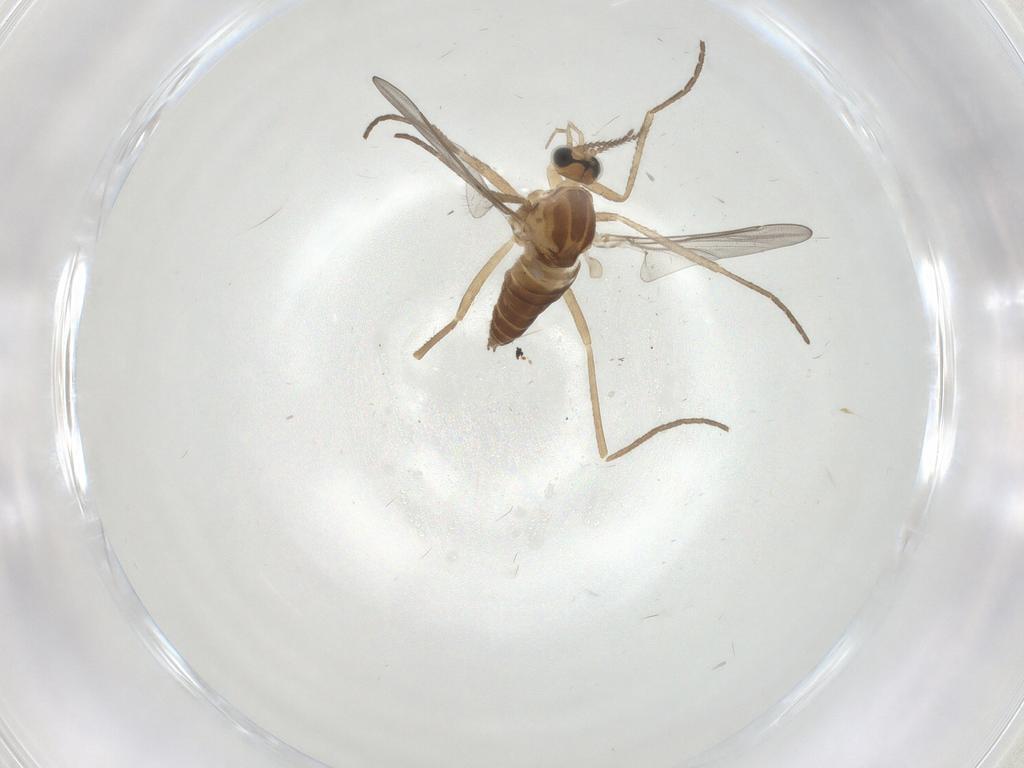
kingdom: Animalia
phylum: Arthropoda
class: Insecta
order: Diptera
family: Cecidomyiidae
